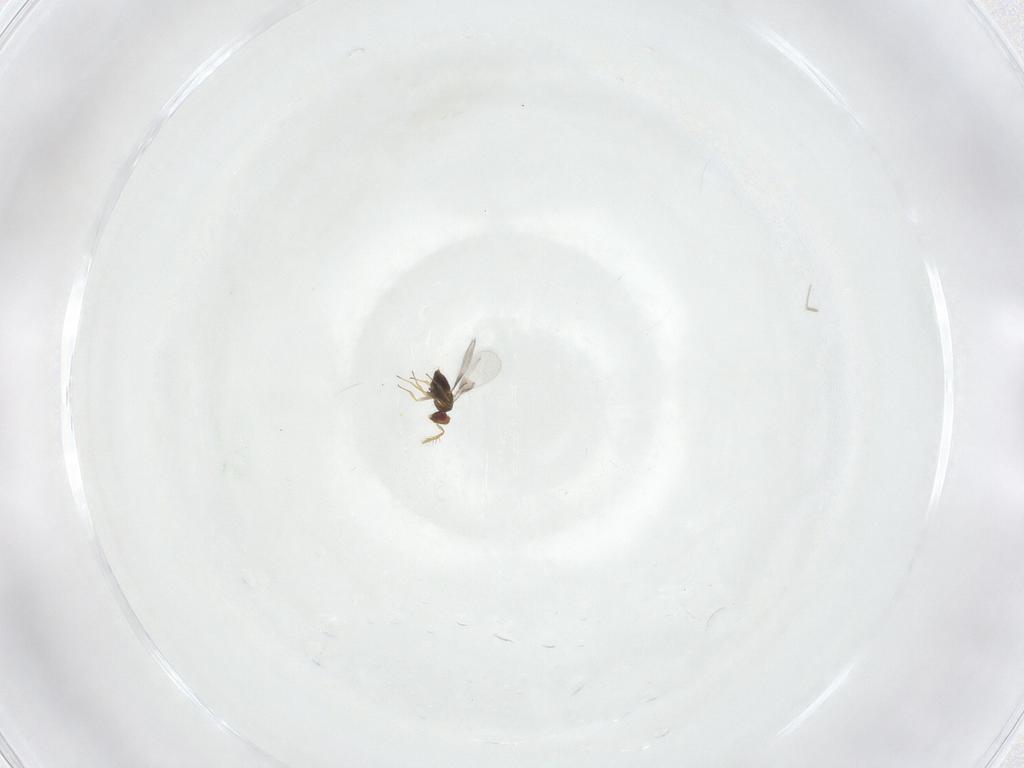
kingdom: Animalia
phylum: Arthropoda
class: Insecta
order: Hymenoptera
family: Trichogrammatidae
